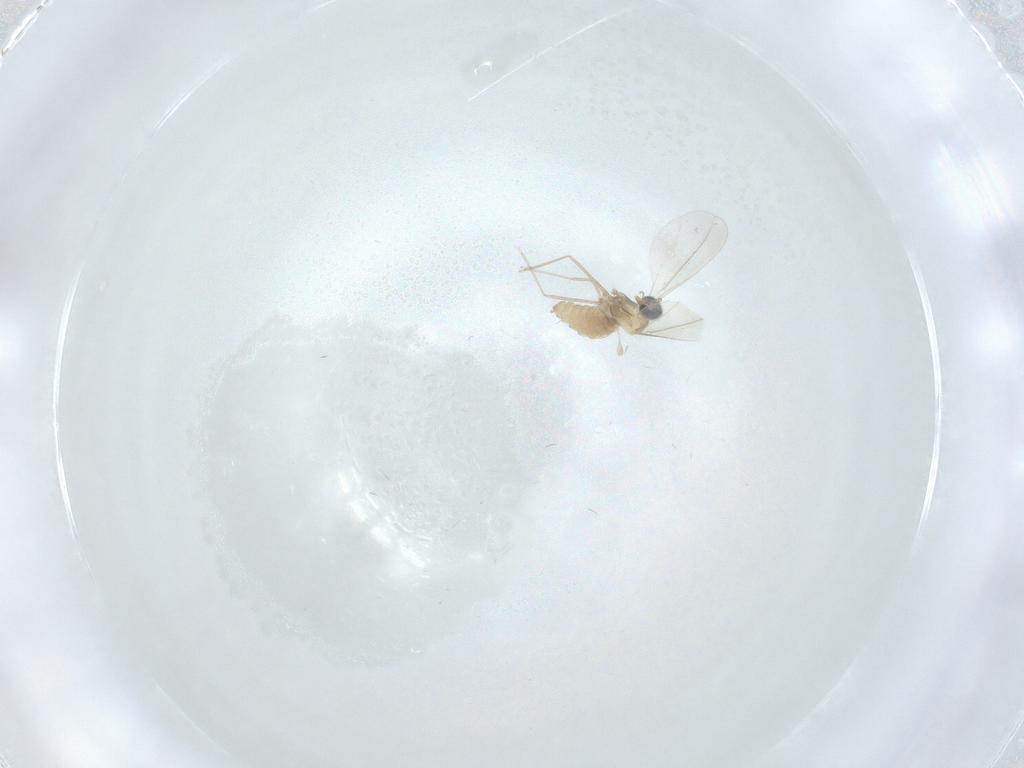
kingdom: Animalia
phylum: Arthropoda
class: Insecta
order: Diptera
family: Cecidomyiidae
